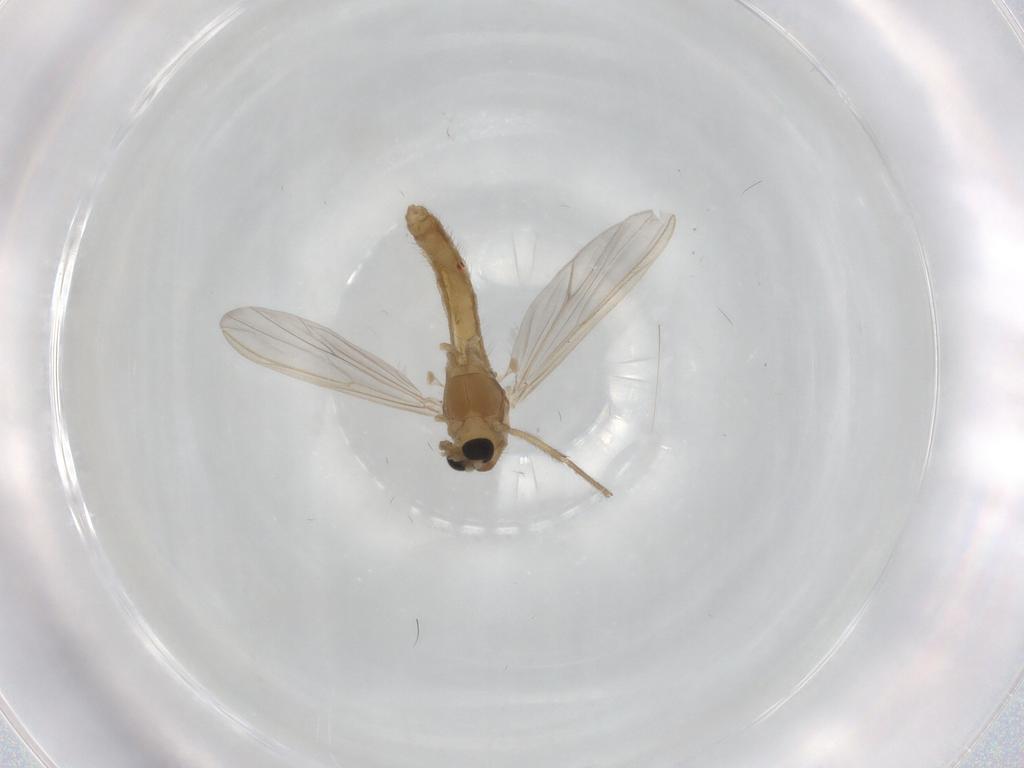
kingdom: Animalia
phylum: Arthropoda
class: Insecta
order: Diptera
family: Chironomidae
